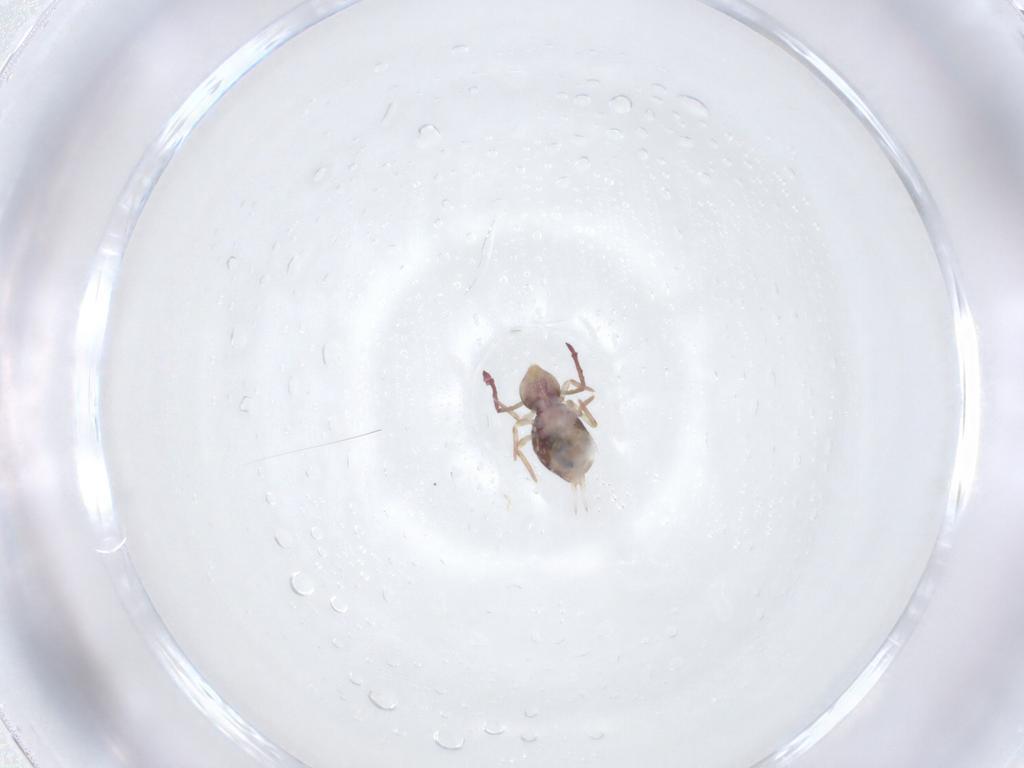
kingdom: Animalia
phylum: Arthropoda
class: Collembola
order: Symphypleona
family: Dicyrtomidae
